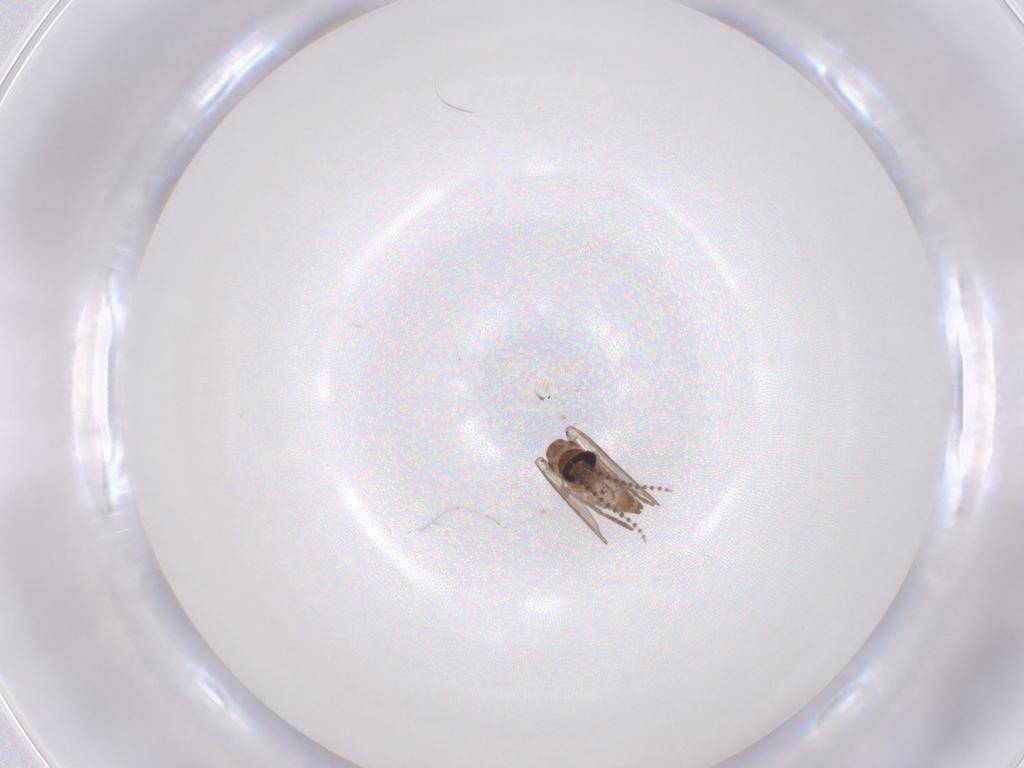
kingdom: Animalia
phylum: Arthropoda
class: Insecta
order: Diptera
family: Psychodidae
